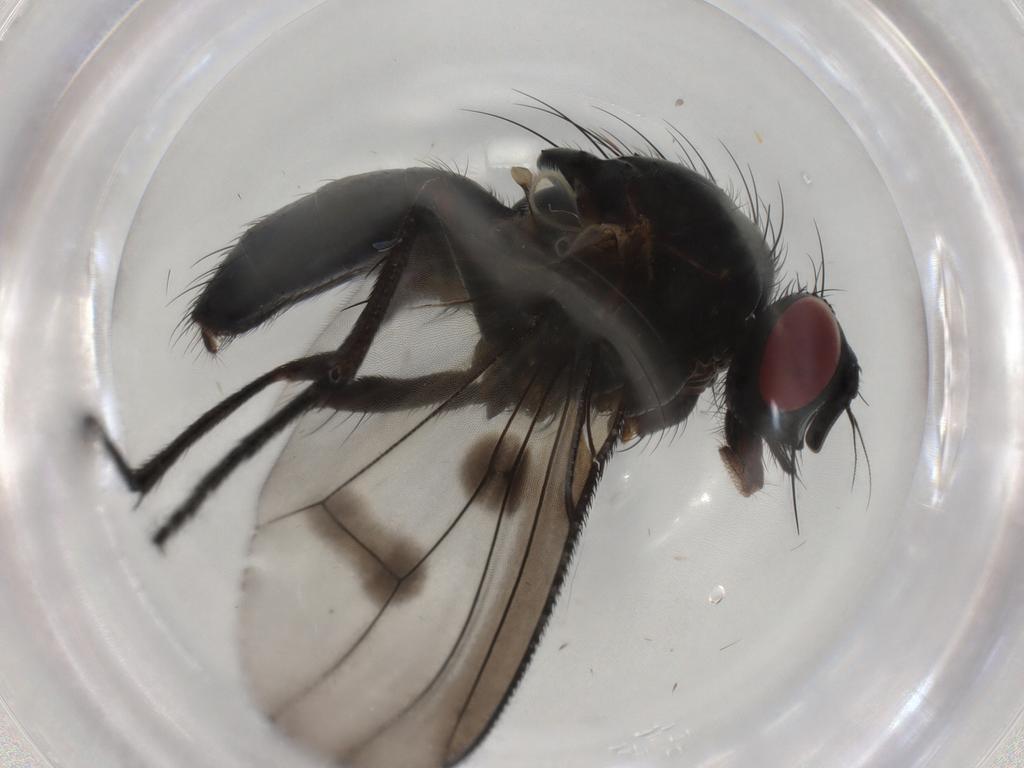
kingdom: Animalia
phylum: Arthropoda
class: Insecta
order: Diptera
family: Muscidae
